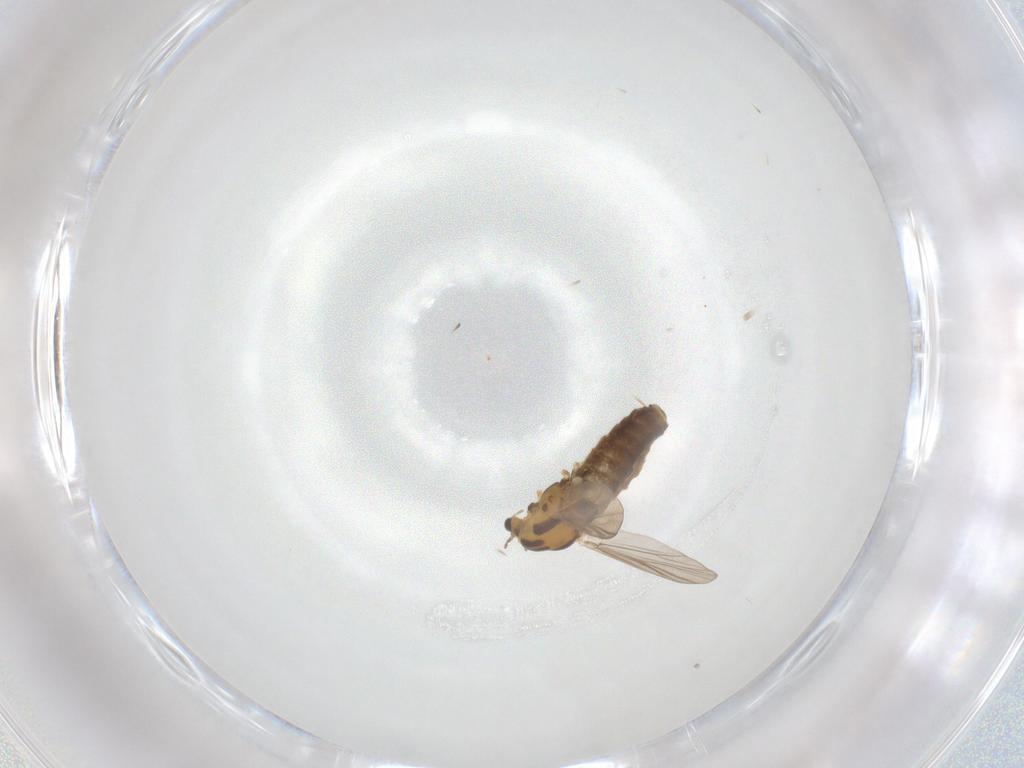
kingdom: Animalia
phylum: Arthropoda
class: Insecta
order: Diptera
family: Chironomidae
